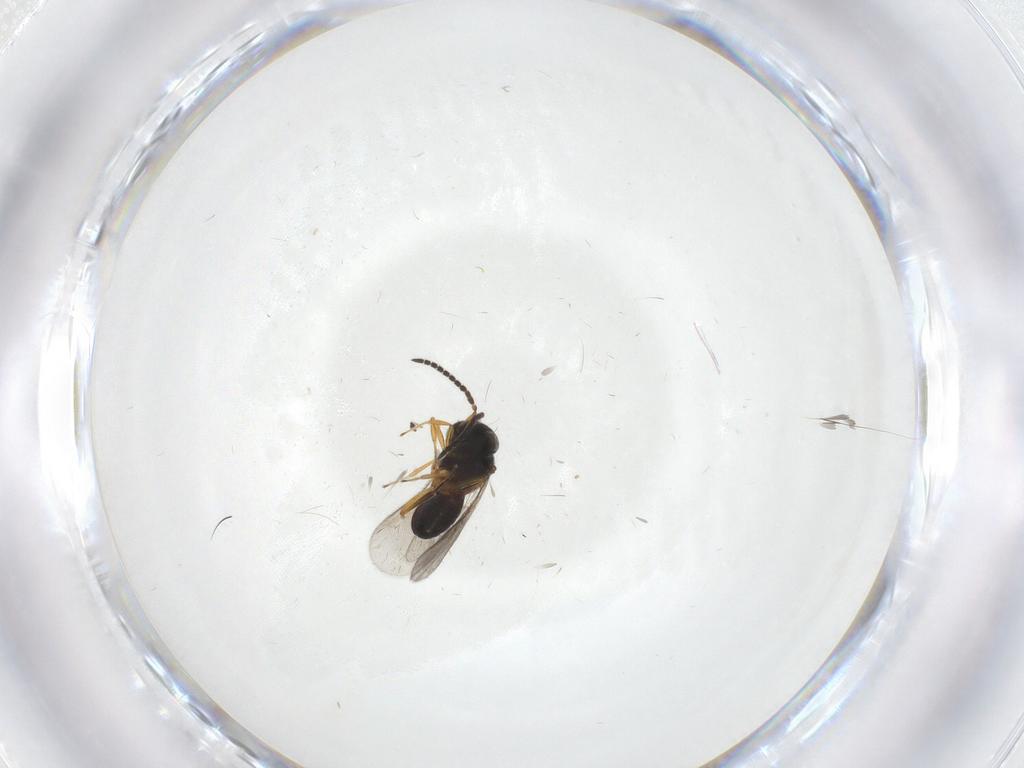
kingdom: Animalia
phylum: Arthropoda
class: Insecta
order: Hymenoptera
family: Scelionidae
